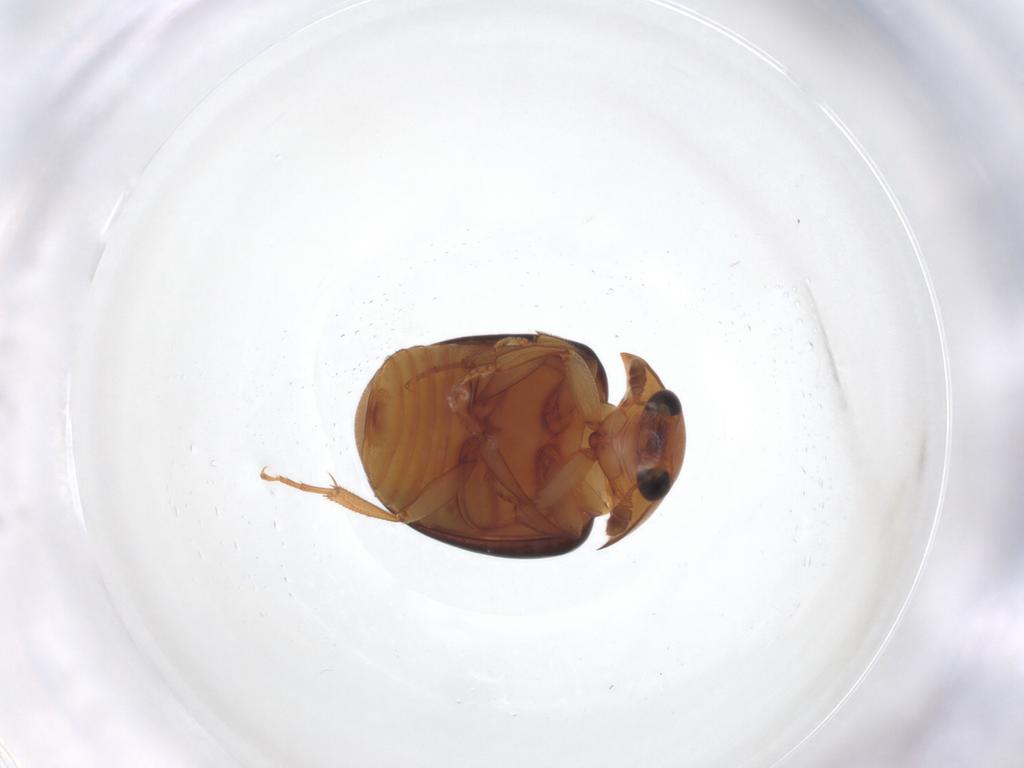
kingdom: Animalia
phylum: Arthropoda
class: Insecta
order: Coleoptera
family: Nitidulidae
